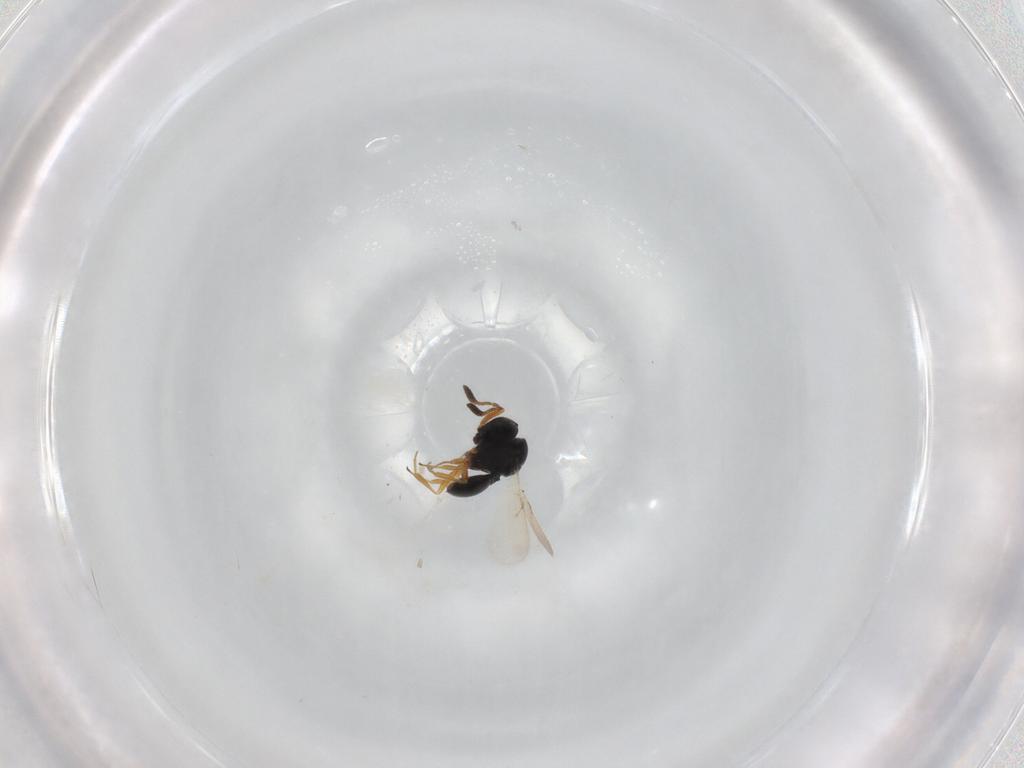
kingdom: Animalia
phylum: Arthropoda
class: Insecta
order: Hymenoptera
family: Scelionidae
